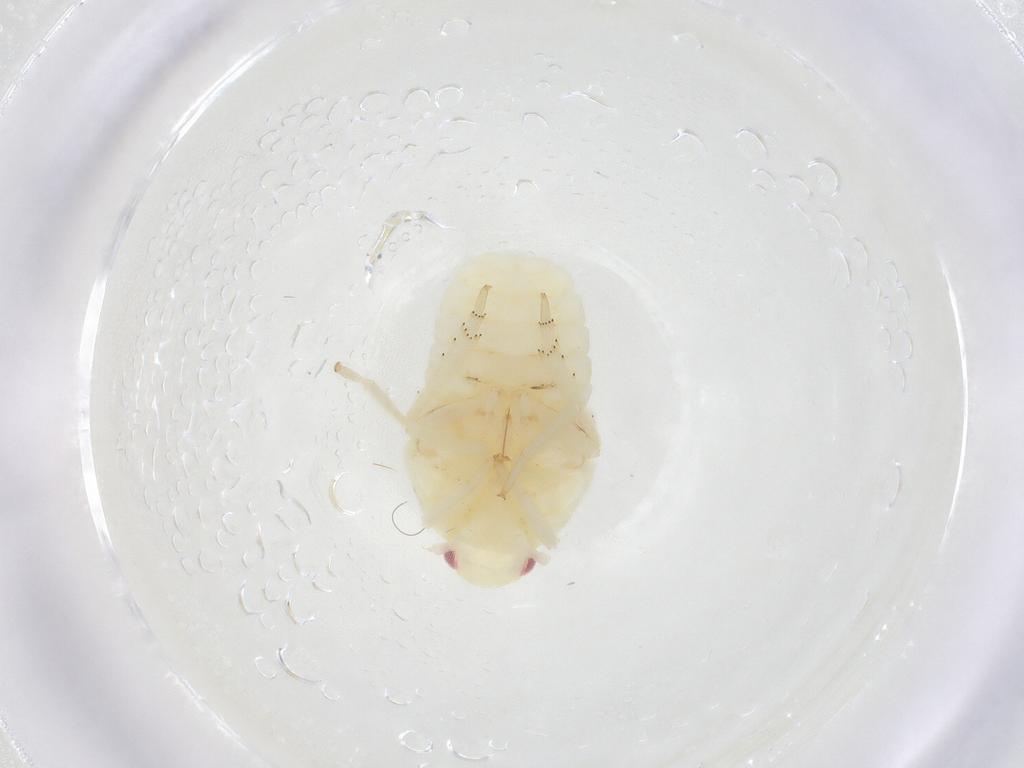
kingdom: Animalia
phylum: Arthropoda
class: Insecta
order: Hemiptera
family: Flatidae
